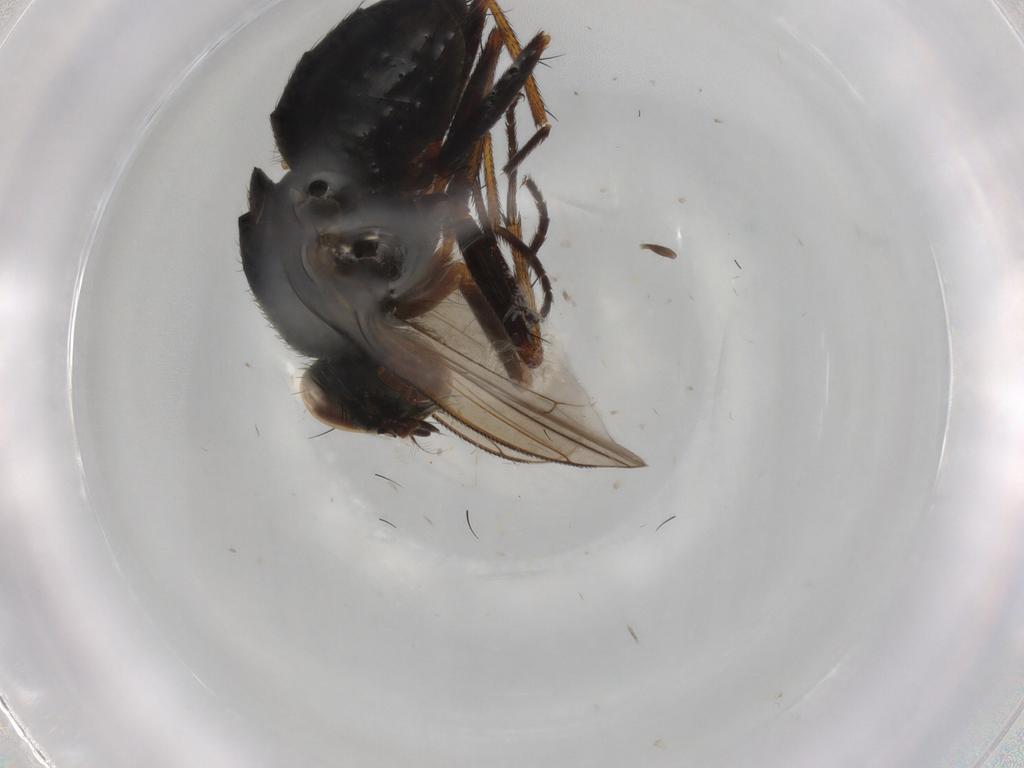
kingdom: Animalia
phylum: Arthropoda
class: Insecta
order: Diptera
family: Muscidae
